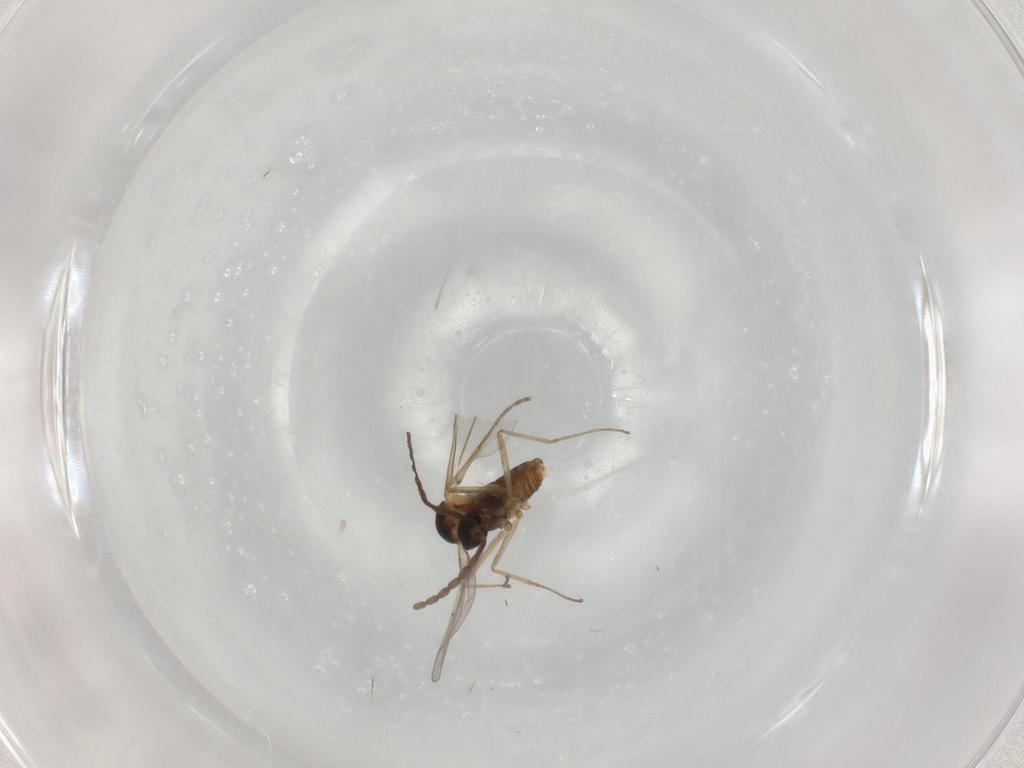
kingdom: Animalia
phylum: Arthropoda
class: Insecta
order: Diptera
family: Cecidomyiidae
